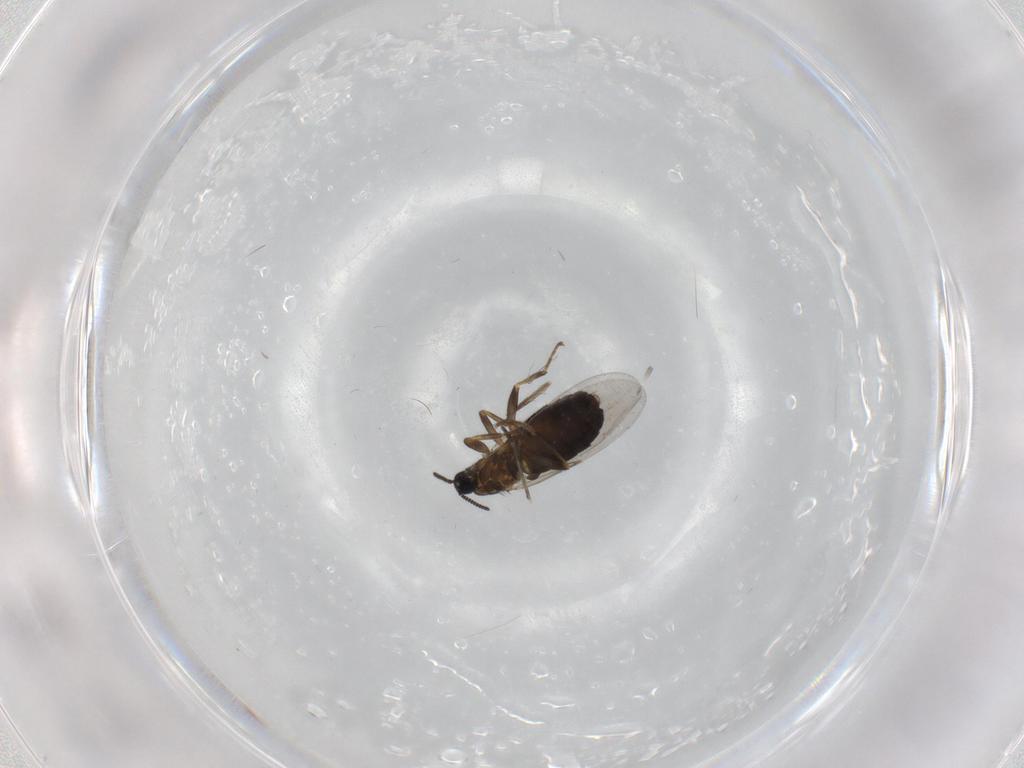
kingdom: Animalia
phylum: Arthropoda
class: Insecta
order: Diptera
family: Scatopsidae
